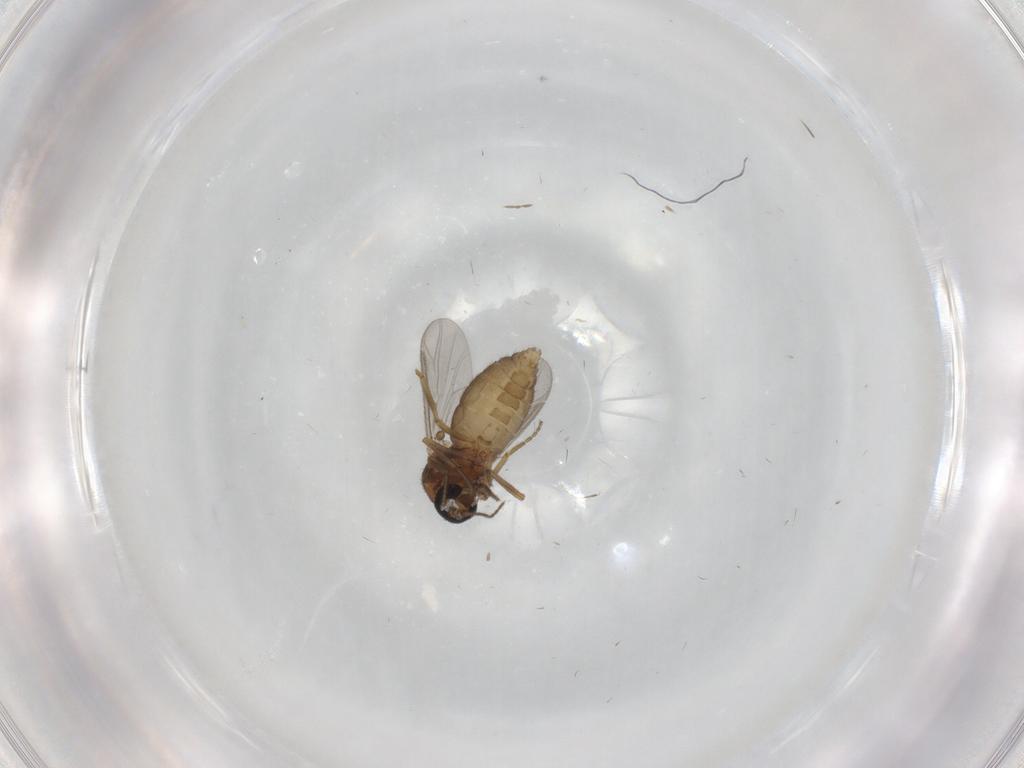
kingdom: Animalia
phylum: Arthropoda
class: Insecta
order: Diptera
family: Ceratopogonidae
